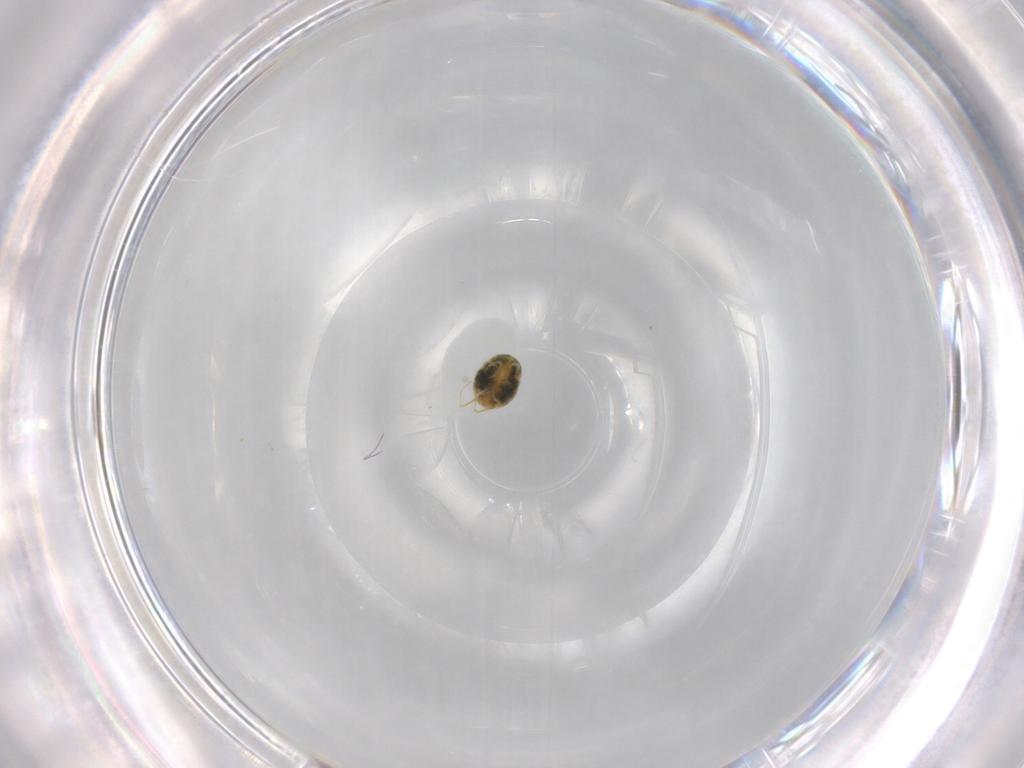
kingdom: Animalia
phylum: Arthropoda
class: Arachnida
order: Trombidiformes
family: Tetranychidae
